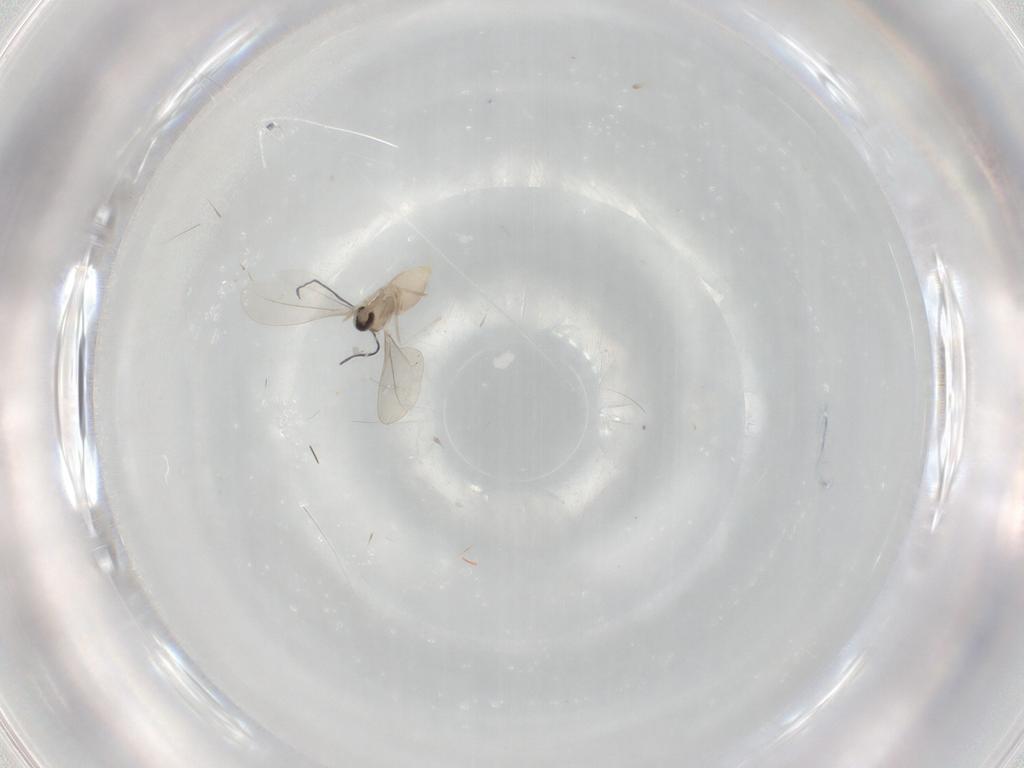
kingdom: Animalia
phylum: Arthropoda
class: Insecta
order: Diptera
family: Cecidomyiidae
